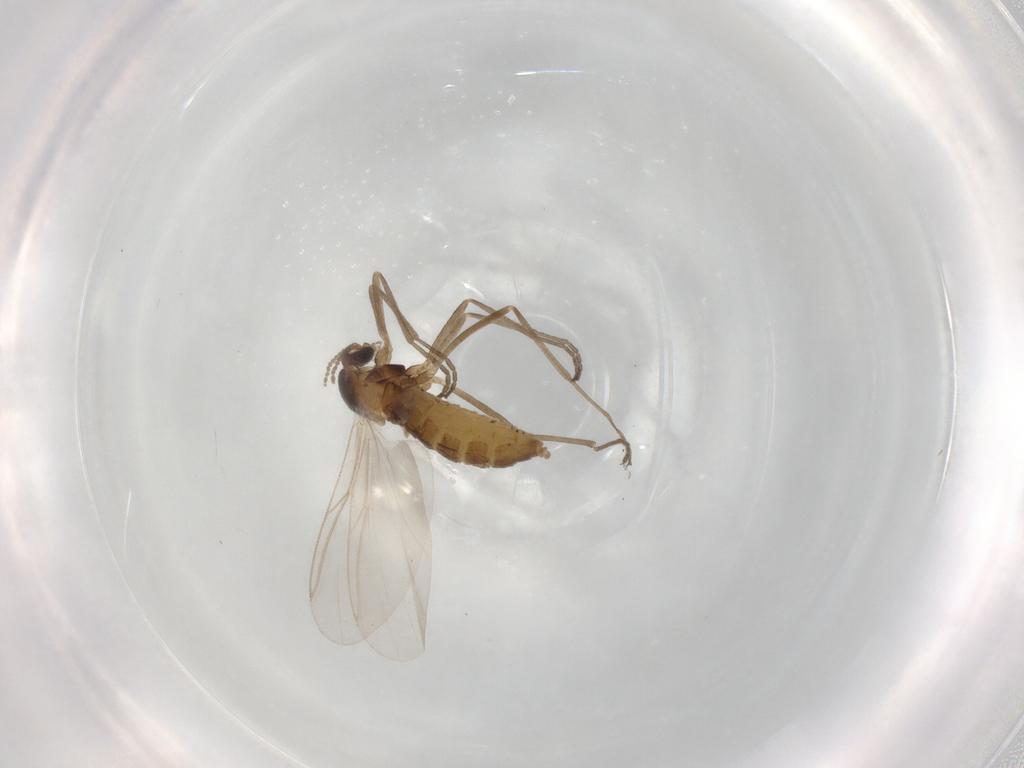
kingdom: Animalia
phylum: Arthropoda
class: Insecta
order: Diptera
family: Cecidomyiidae
